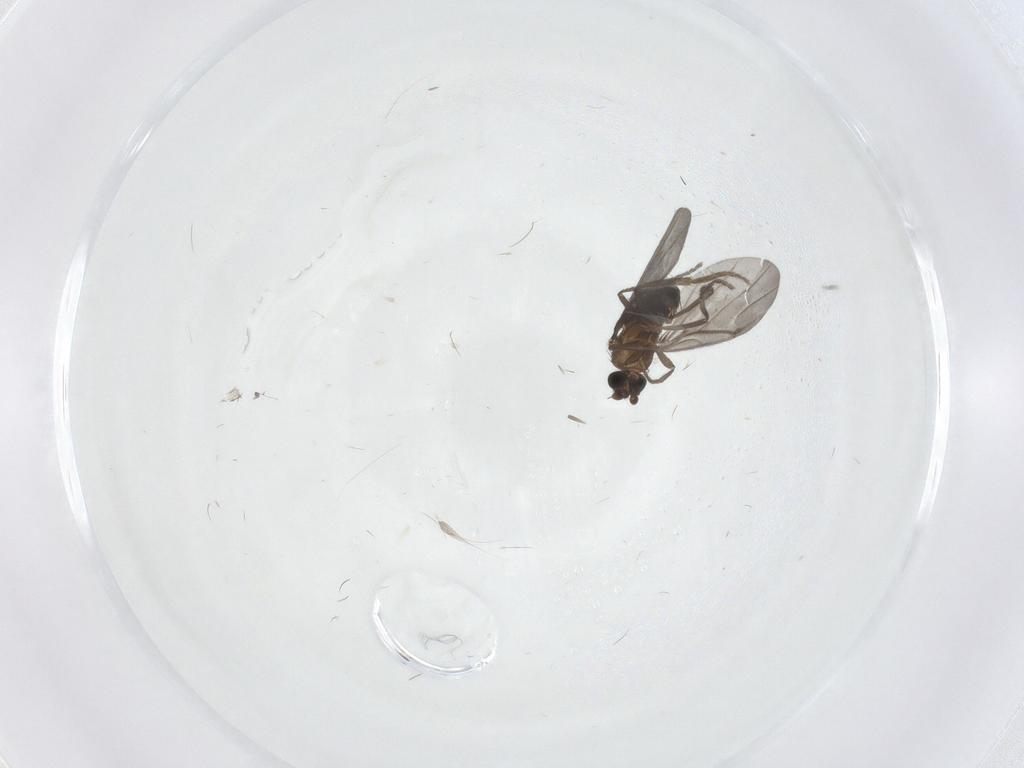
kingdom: Animalia
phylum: Arthropoda
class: Insecta
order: Diptera
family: Phoridae
